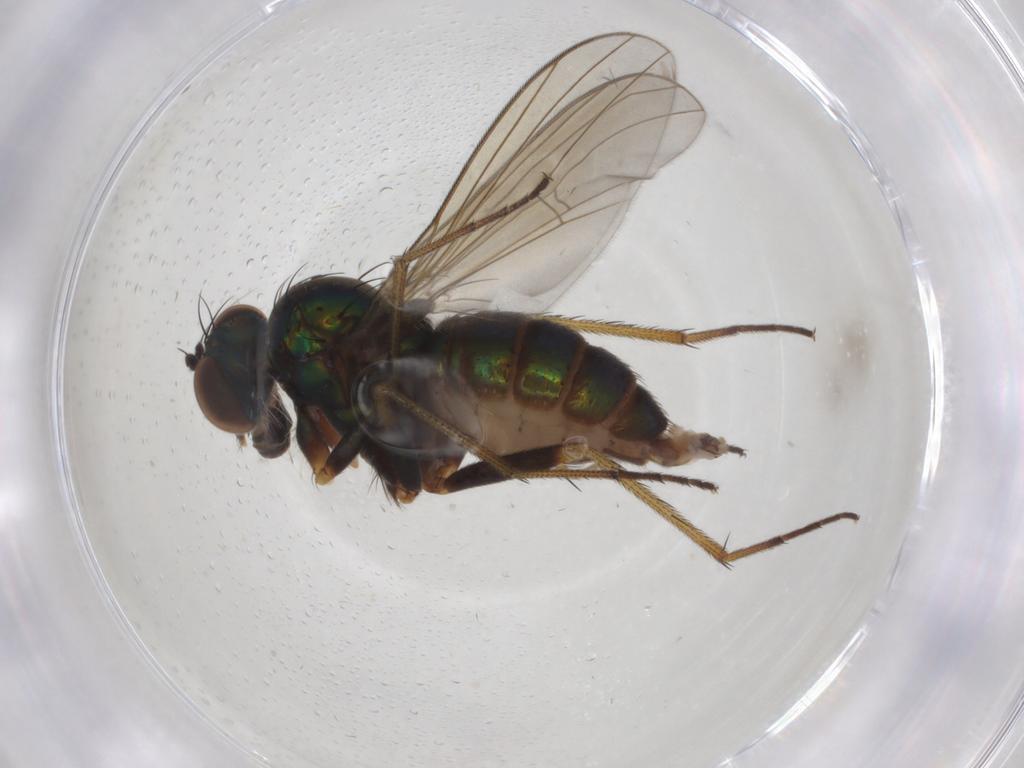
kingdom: Animalia
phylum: Arthropoda
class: Insecta
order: Diptera
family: Dolichopodidae
